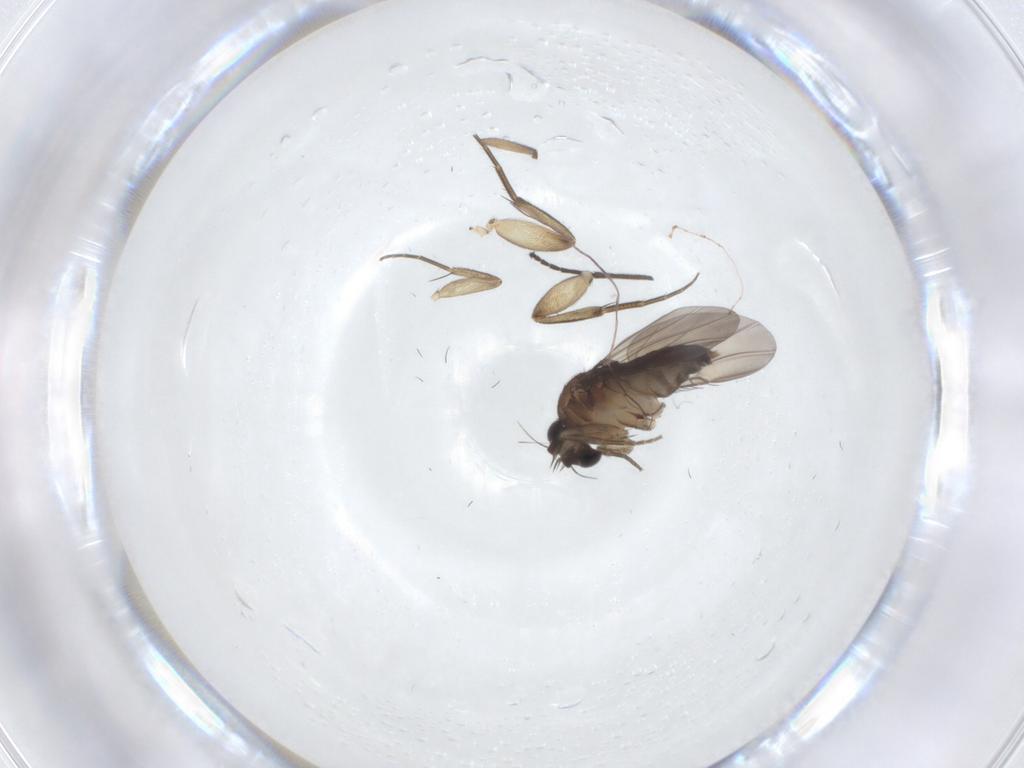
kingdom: Animalia
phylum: Arthropoda
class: Insecta
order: Diptera
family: Phoridae
